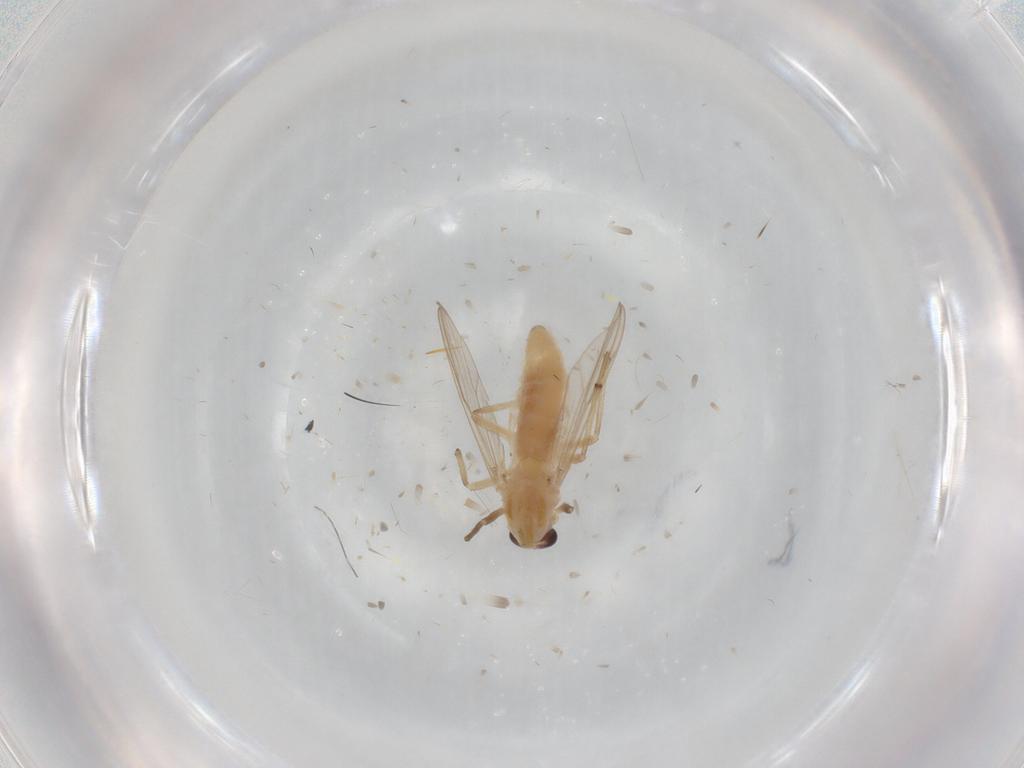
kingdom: Animalia
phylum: Arthropoda
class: Insecta
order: Diptera
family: Chironomidae
